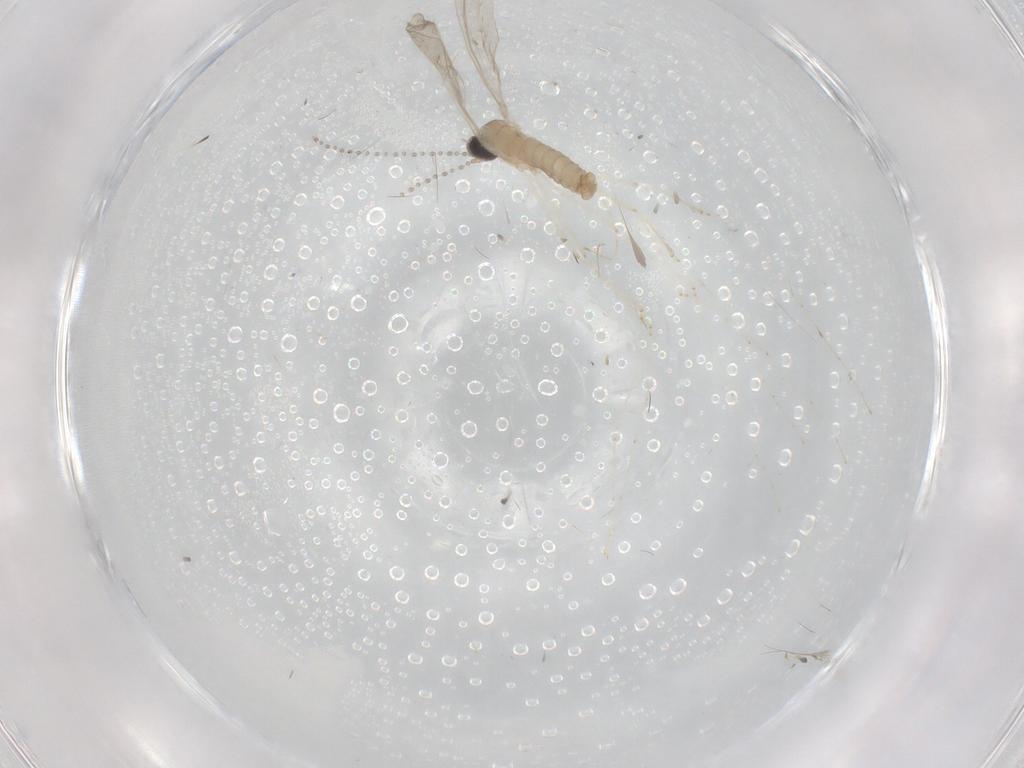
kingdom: Animalia
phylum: Arthropoda
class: Insecta
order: Diptera
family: Cecidomyiidae
